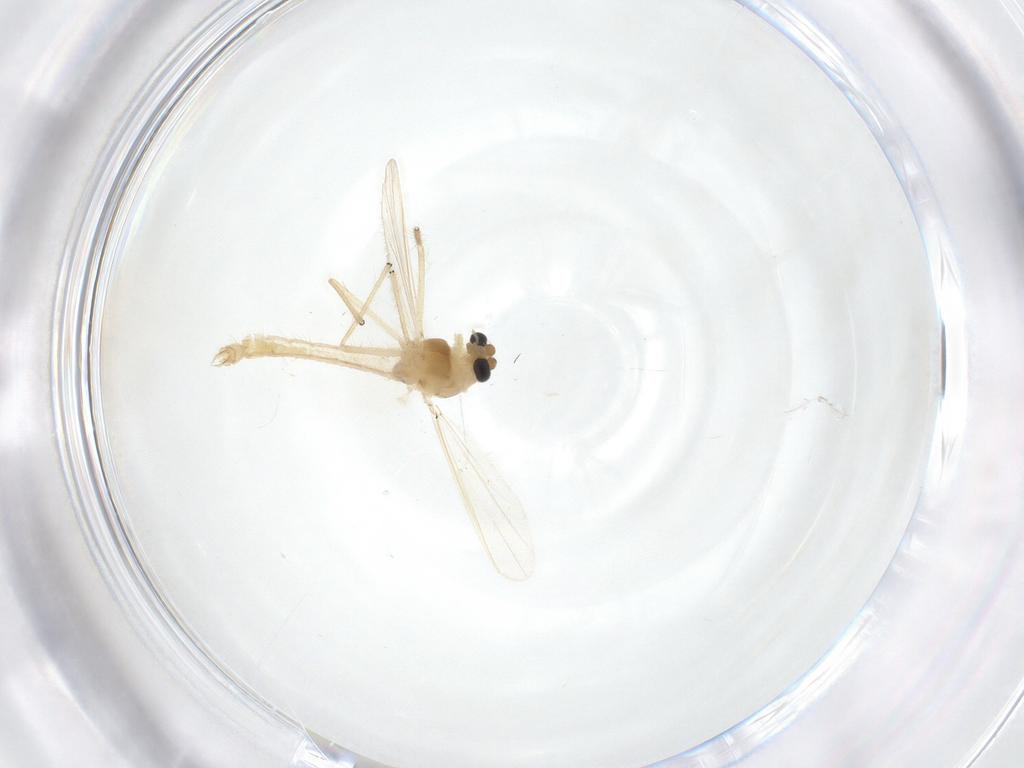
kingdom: Animalia
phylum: Arthropoda
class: Insecta
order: Diptera
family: Chironomidae
